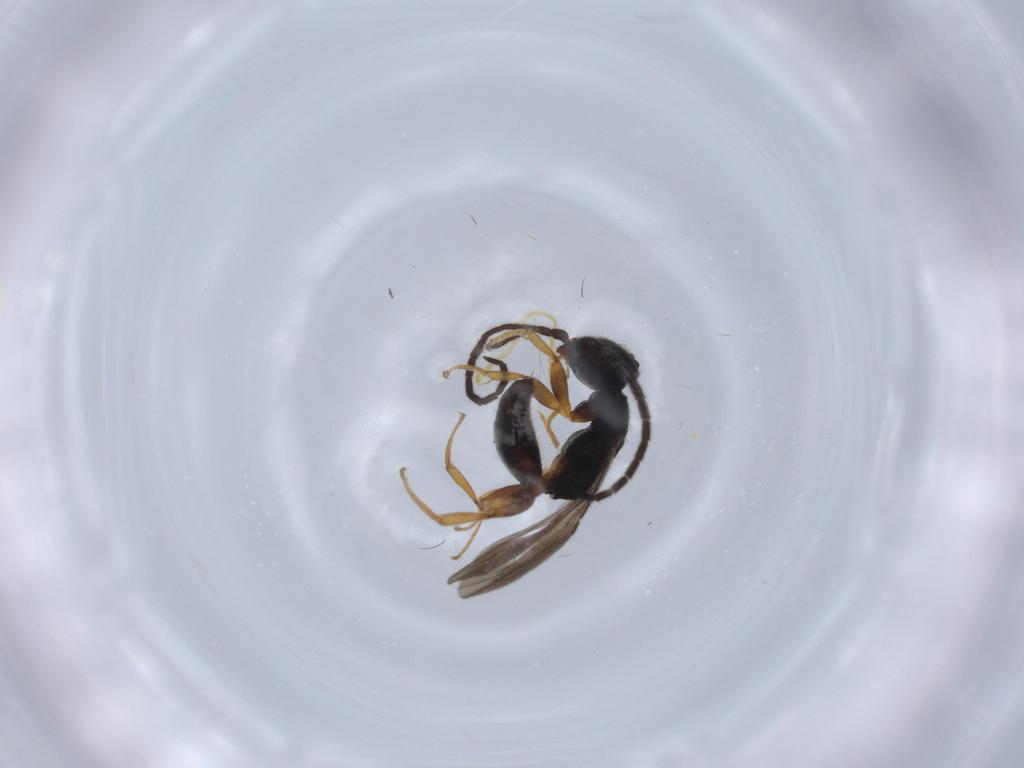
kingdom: Animalia
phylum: Arthropoda
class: Insecta
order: Hymenoptera
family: Bethylidae
